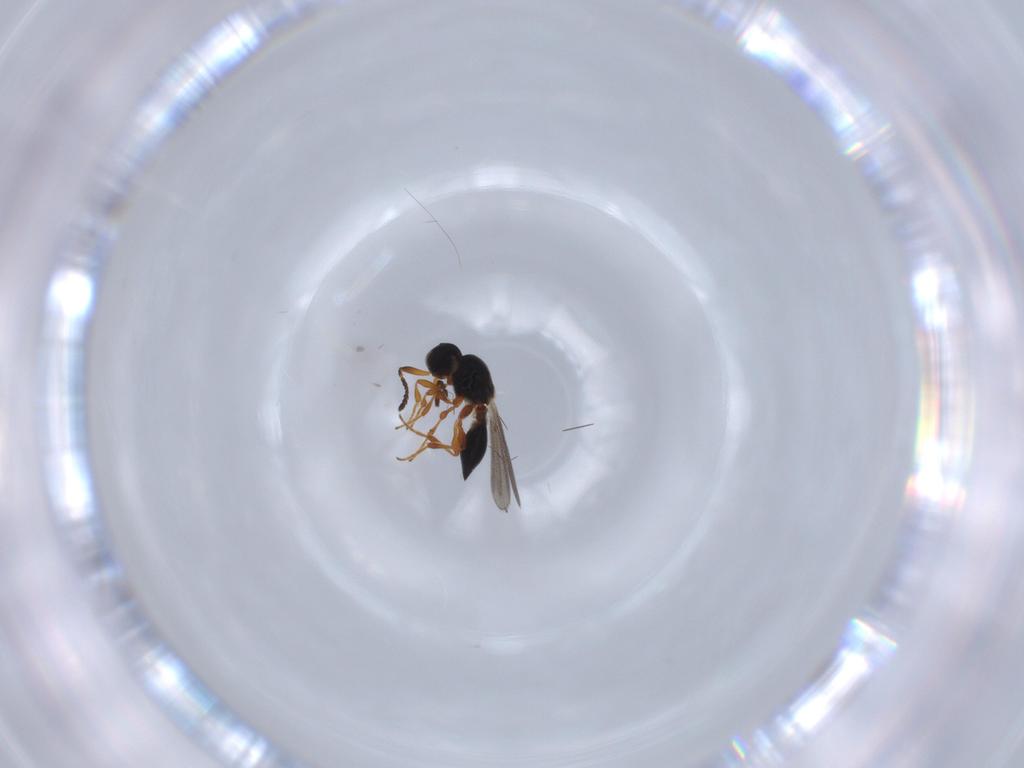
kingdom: Animalia
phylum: Arthropoda
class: Insecta
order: Hymenoptera
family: Platygastridae
